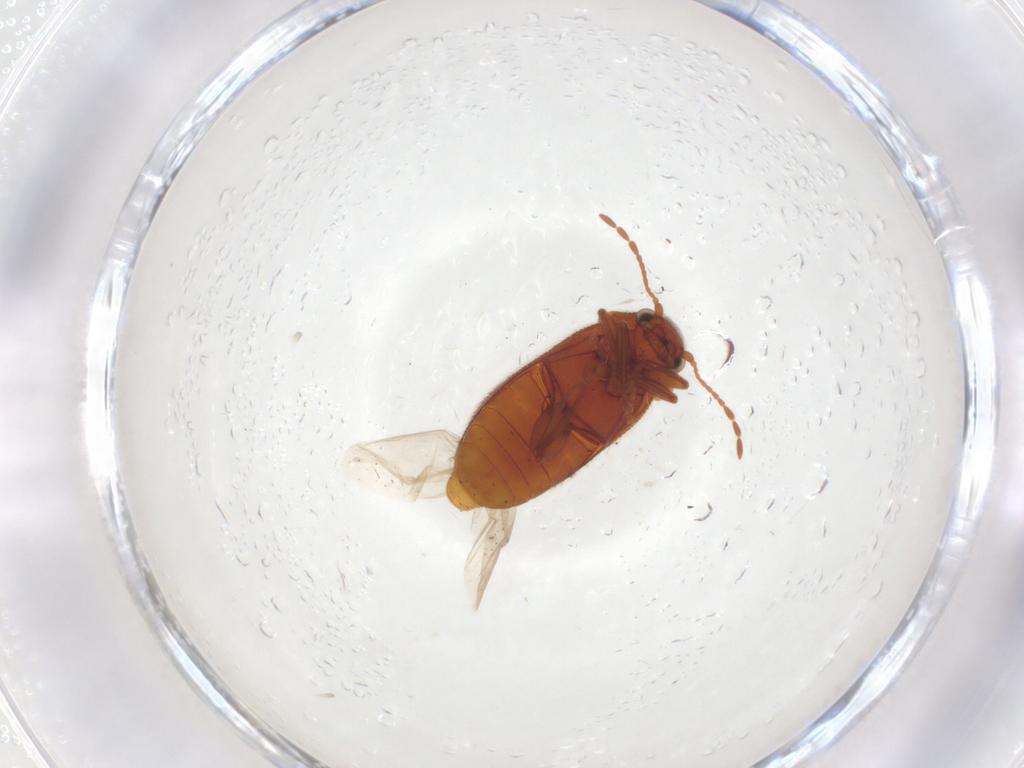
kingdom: Animalia
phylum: Arthropoda
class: Insecta
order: Coleoptera
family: Ptinidae
